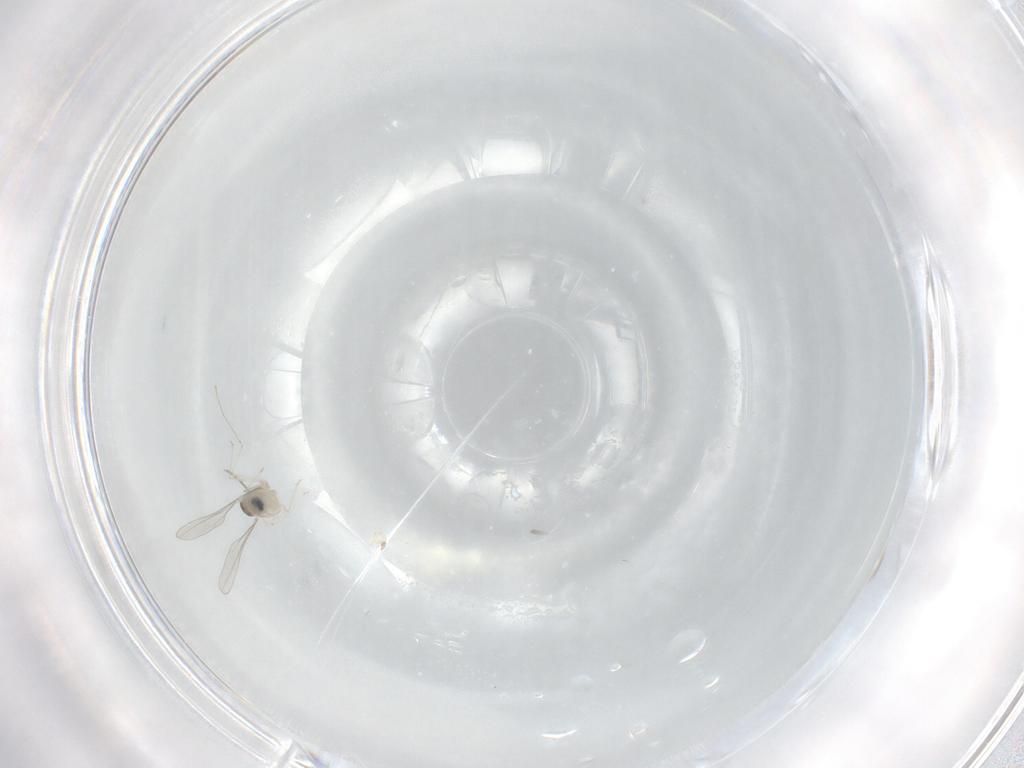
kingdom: Animalia
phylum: Arthropoda
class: Insecta
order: Diptera
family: Cecidomyiidae
